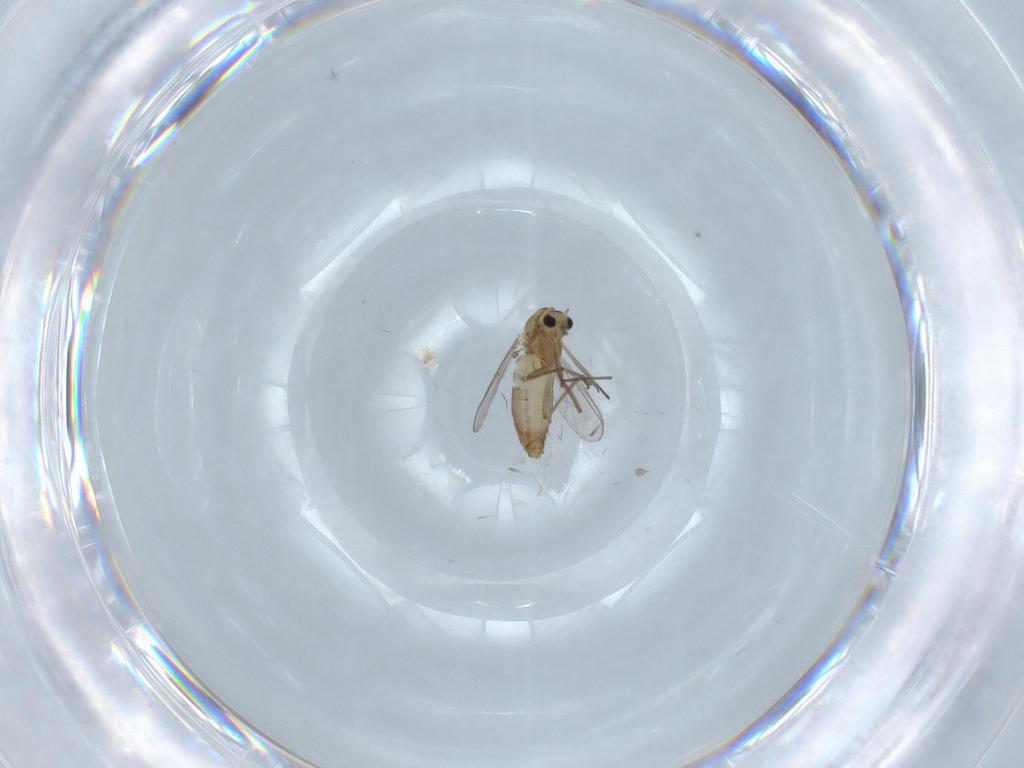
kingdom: Animalia
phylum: Arthropoda
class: Insecta
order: Diptera
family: Chironomidae
